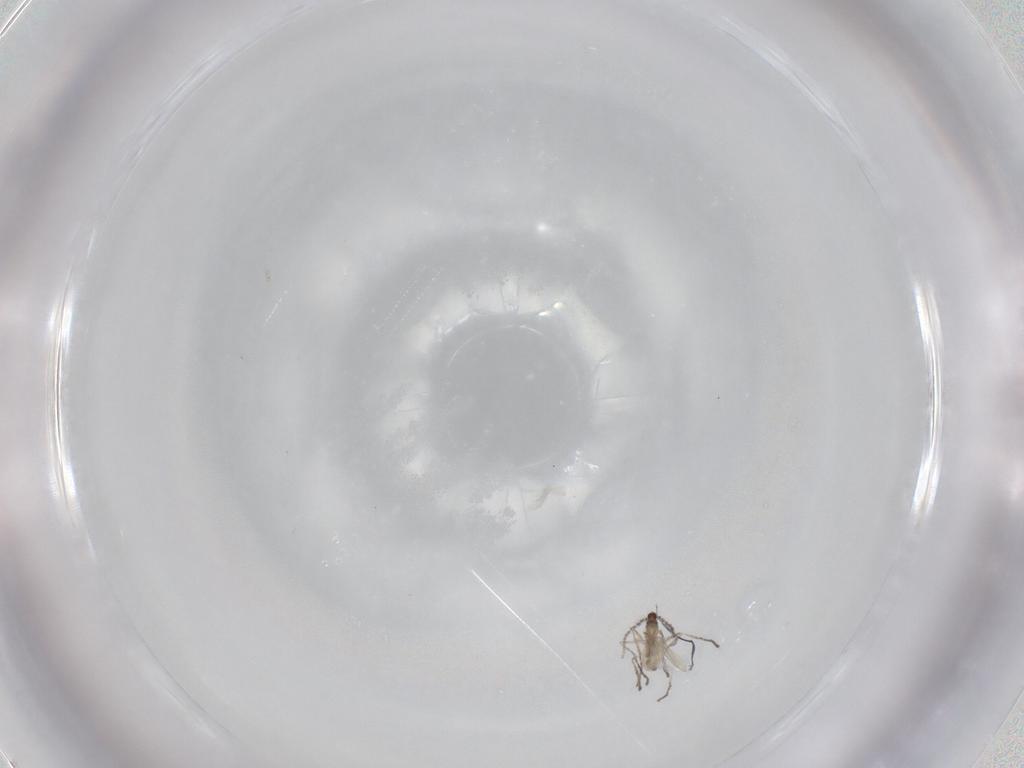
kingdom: Animalia
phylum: Arthropoda
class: Insecta
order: Diptera
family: Cecidomyiidae
